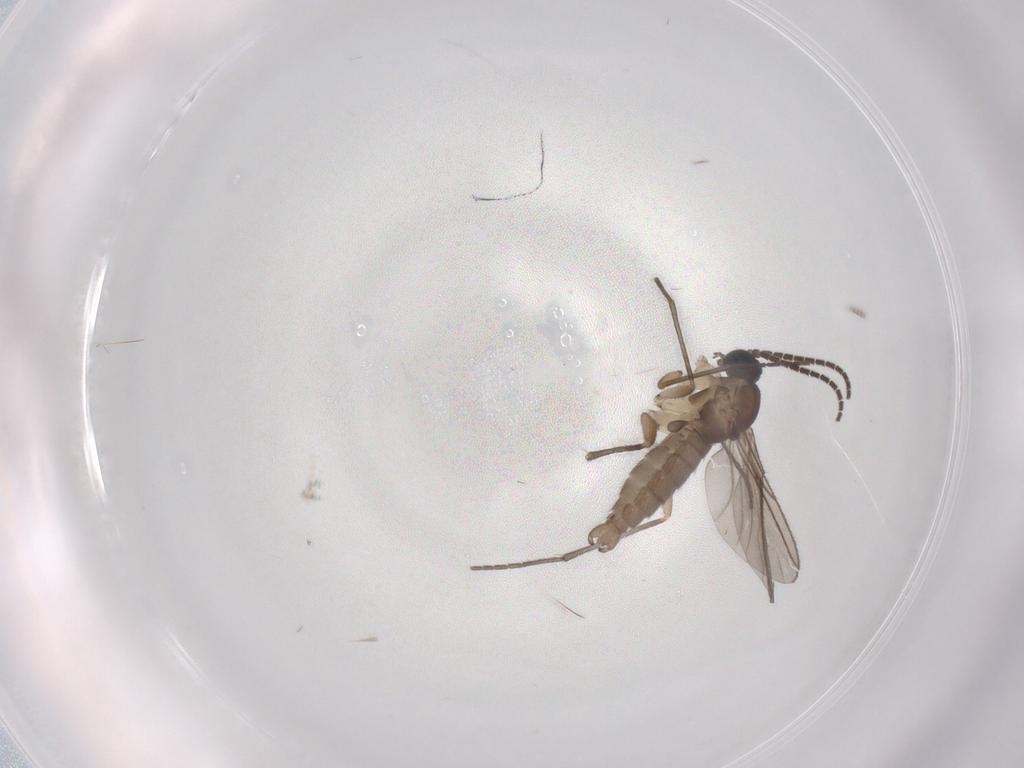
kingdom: Animalia
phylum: Arthropoda
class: Insecta
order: Diptera
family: Sciaridae
